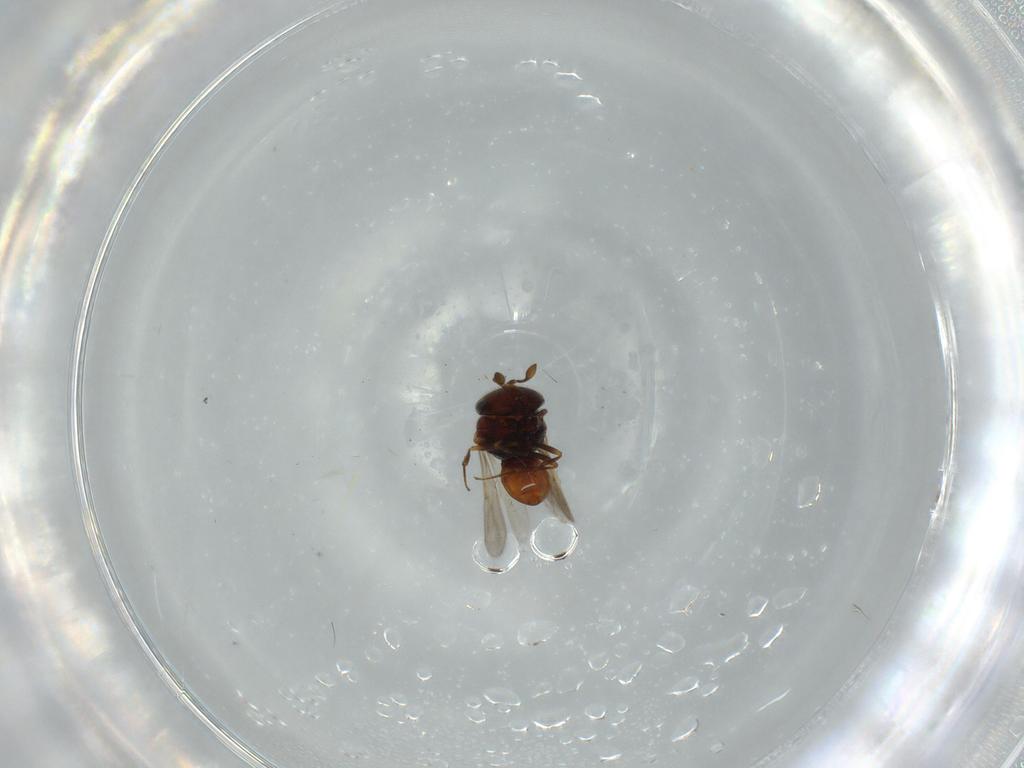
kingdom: Animalia
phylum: Arthropoda
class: Insecta
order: Hymenoptera
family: Scelionidae
